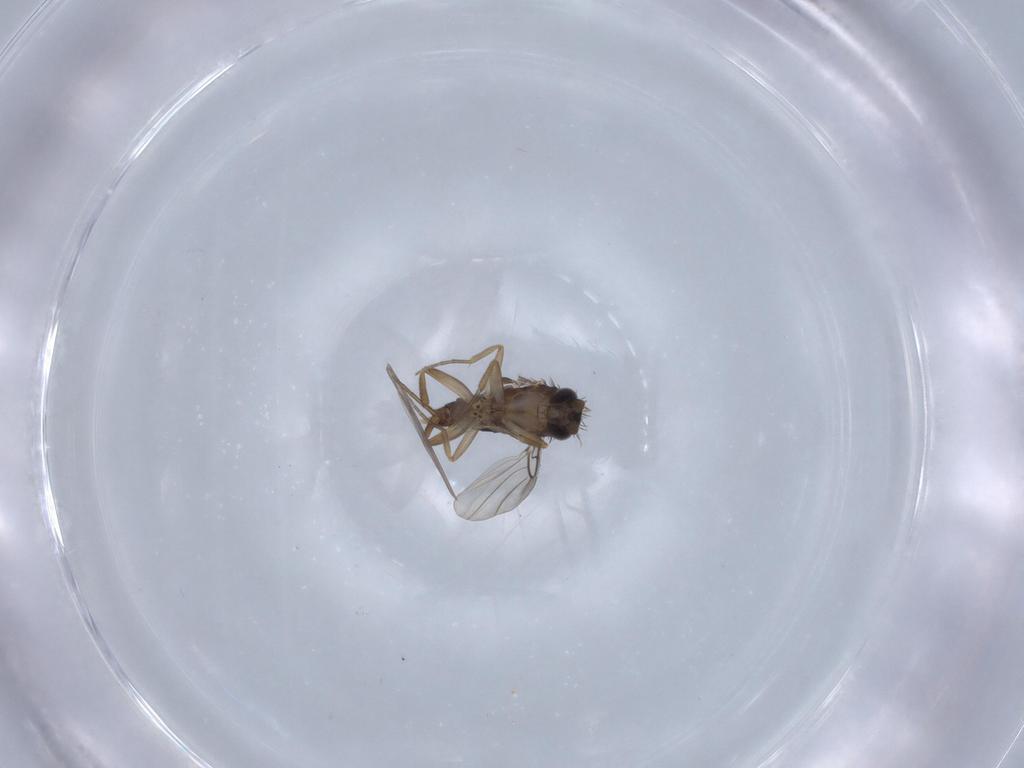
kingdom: Animalia
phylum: Arthropoda
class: Insecta
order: Diptera
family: Phoridae
